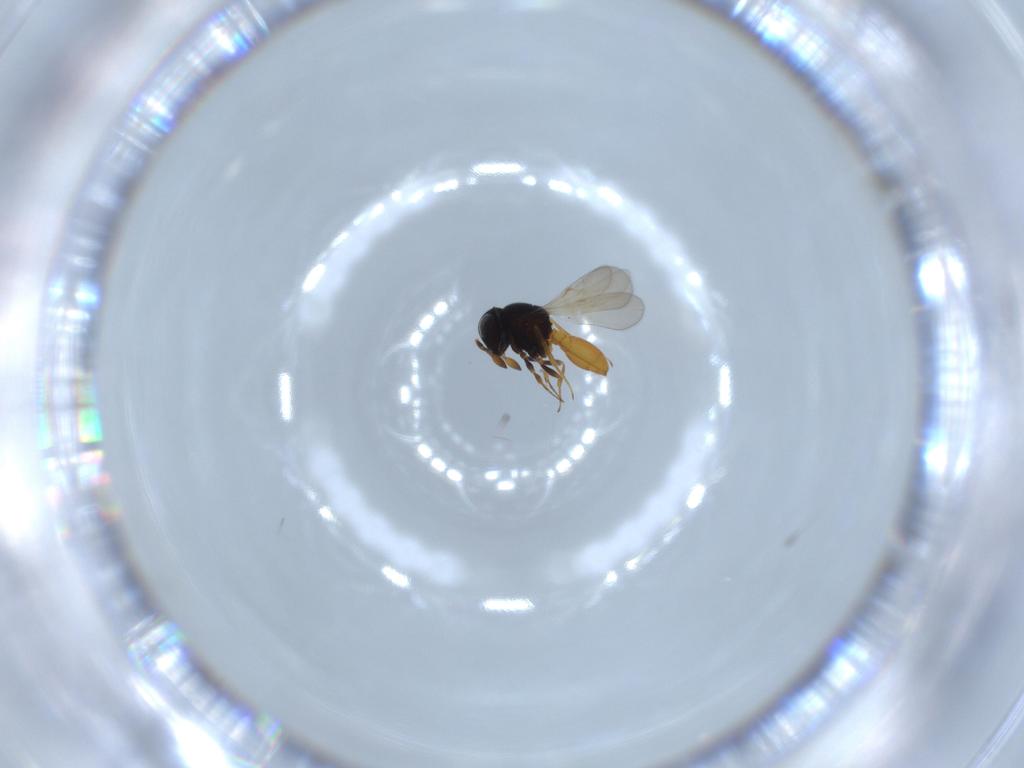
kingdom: Animalia
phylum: Arthropoda
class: Insecta
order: Hymenoptera
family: Scelionidae
